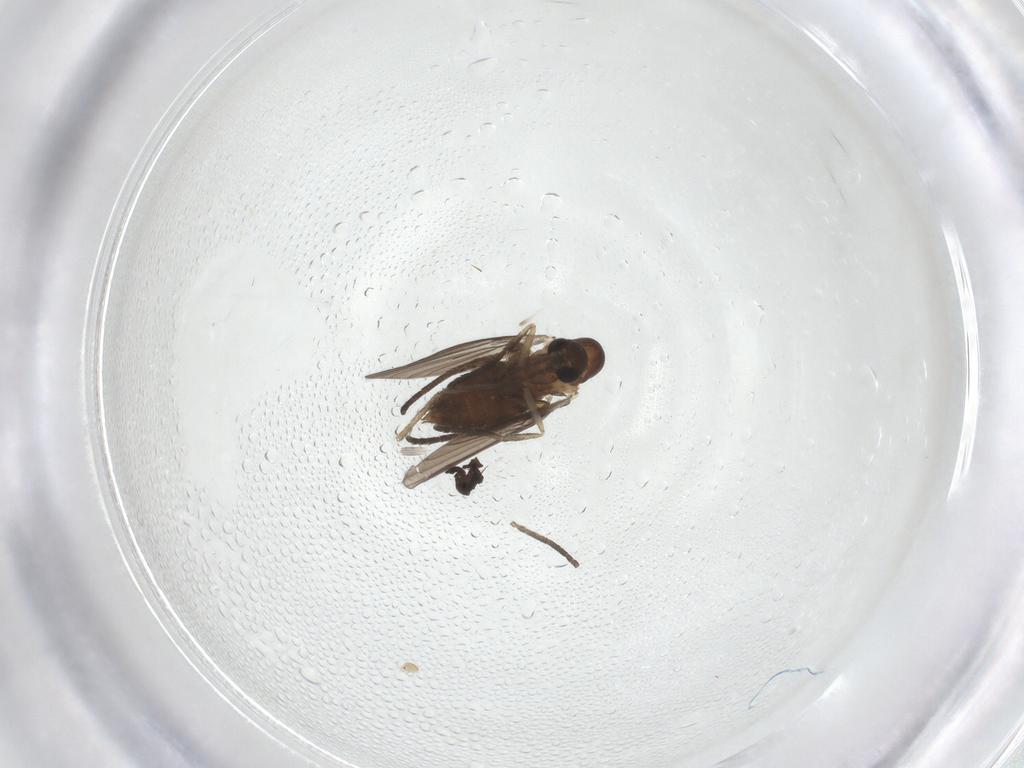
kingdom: Animalia
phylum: Arthropoda
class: Insecta
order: Diptera
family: Psychodidae
